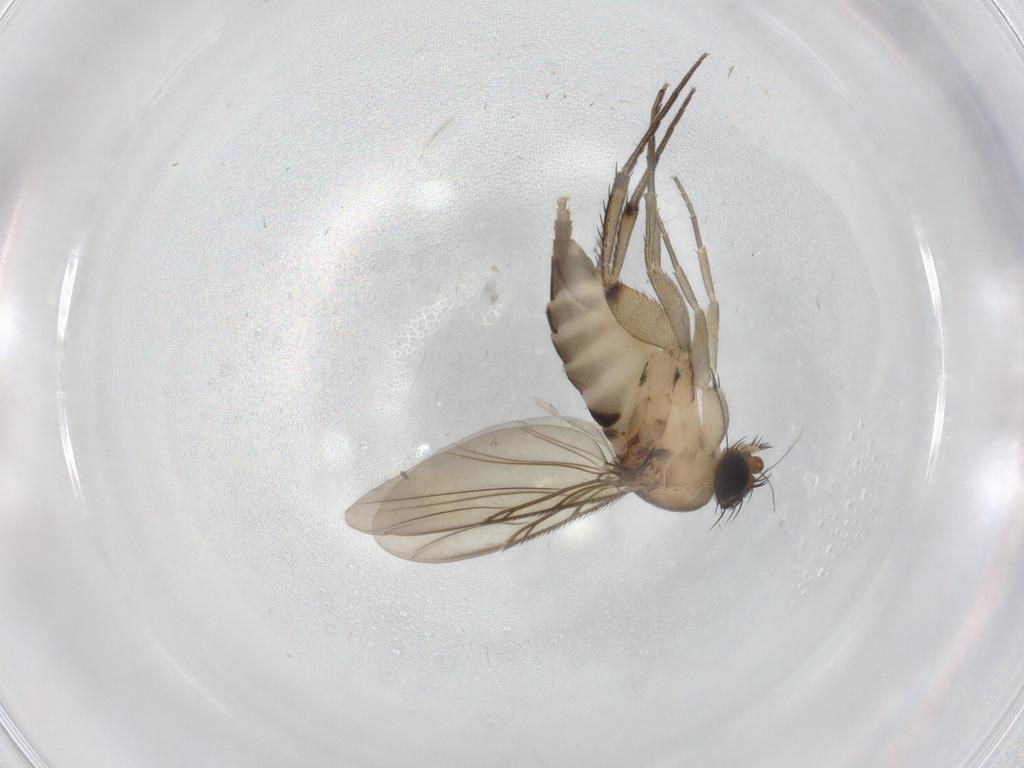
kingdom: Animalia
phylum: Arthropoda
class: Insecta
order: Diptera
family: Phoridae
